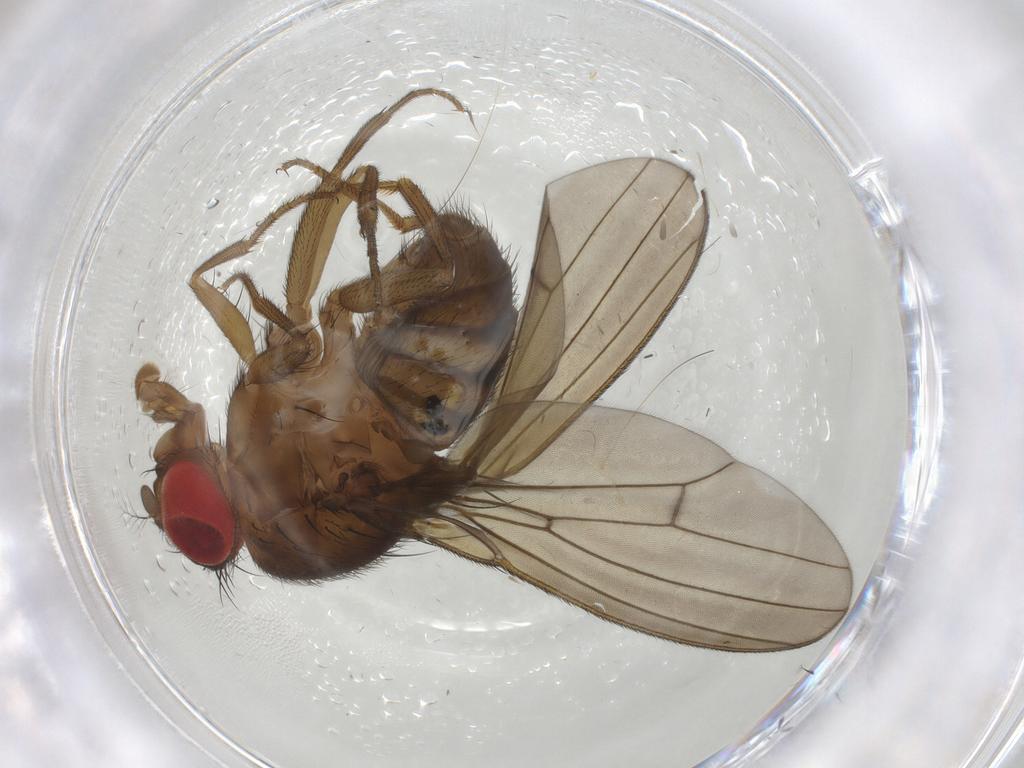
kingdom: Animalia
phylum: Arthropoda
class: Insecta
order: Diptera
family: Drosophilidae
